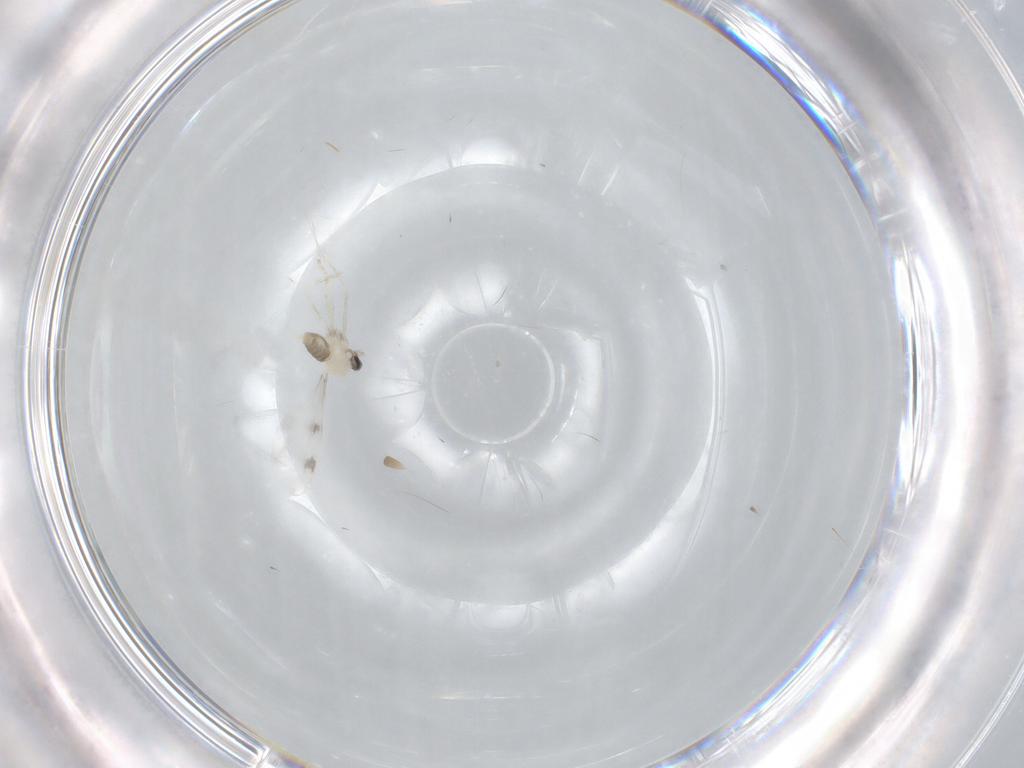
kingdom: Animalia
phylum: Arthropoda
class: Insecta
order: Diptera
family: Cecidomyiidae
